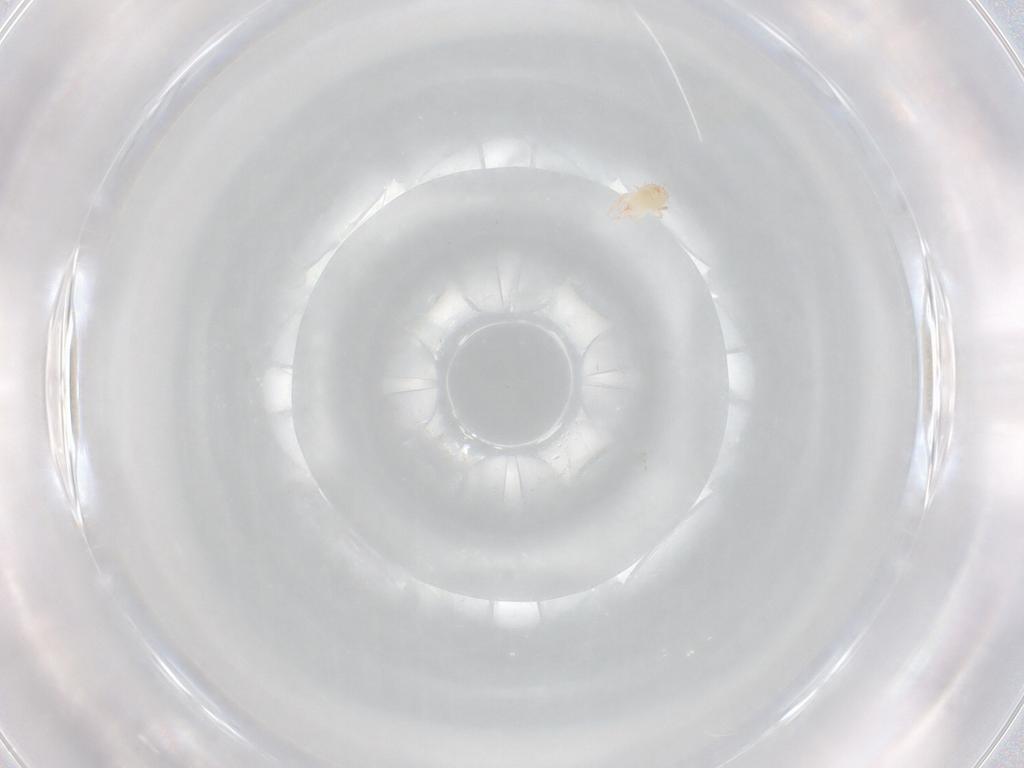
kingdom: Animalia
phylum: Arthropoda
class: Arachnida
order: Trombidiformes
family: Stigmaeidae
